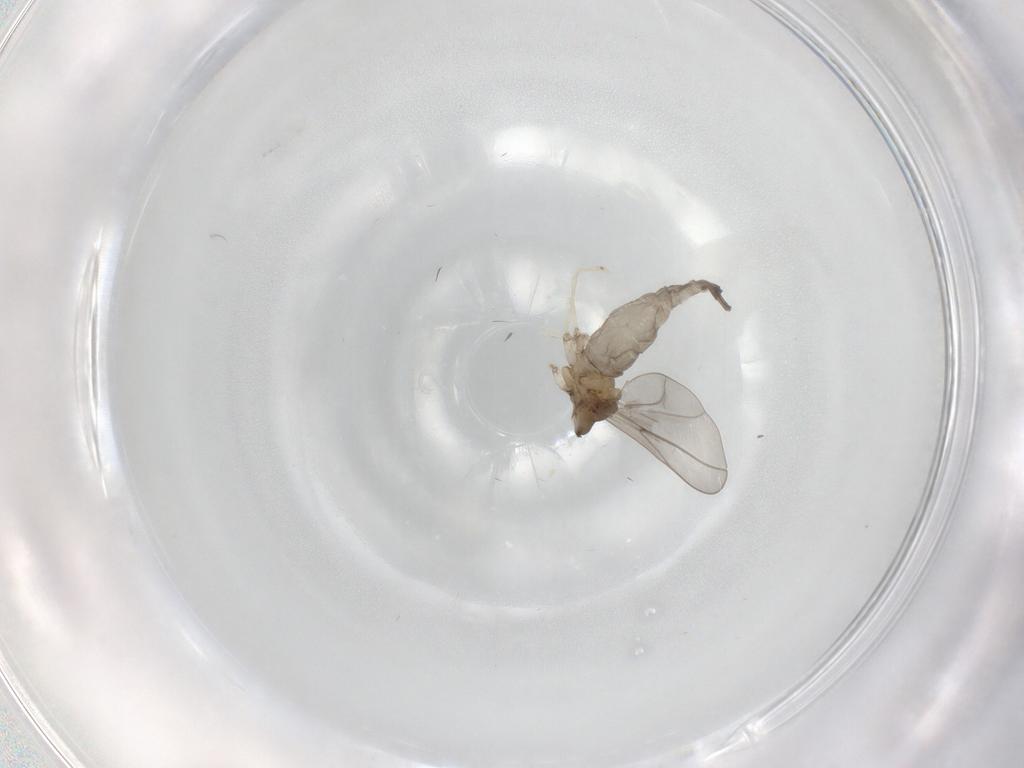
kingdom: Animalia
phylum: Arthropoda
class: Insecta
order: Diptera
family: Cecidomyiidae
